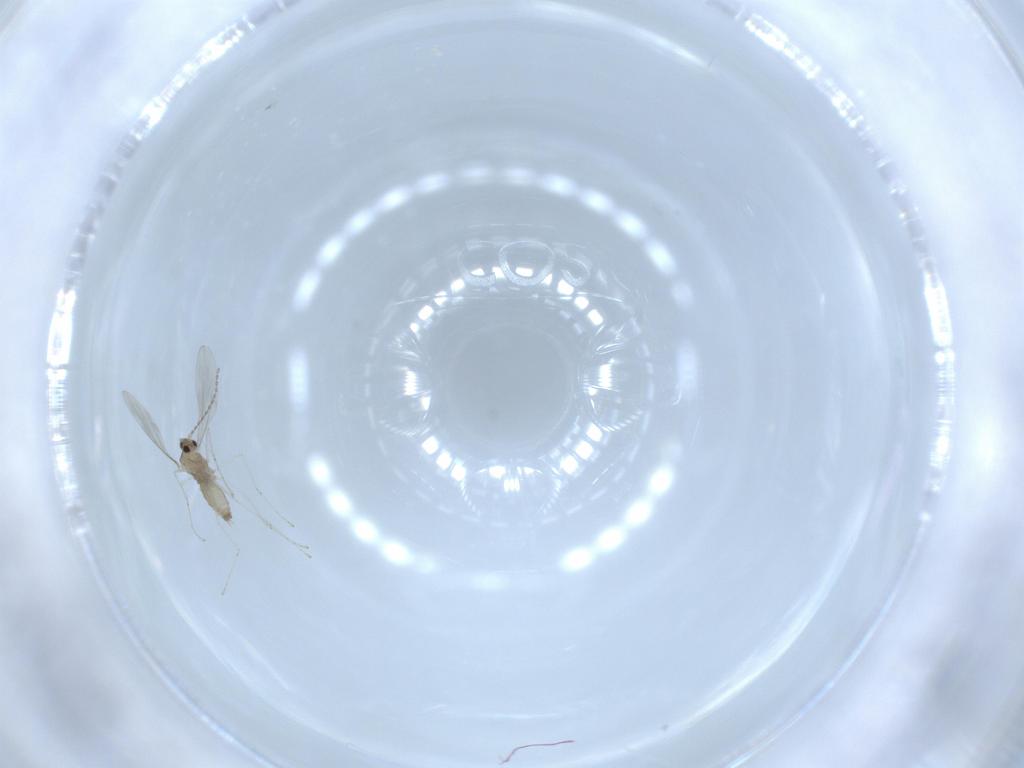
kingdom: Animalia
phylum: Arthropoda
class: Insecta
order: Diptera
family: Cecidomyiidae
